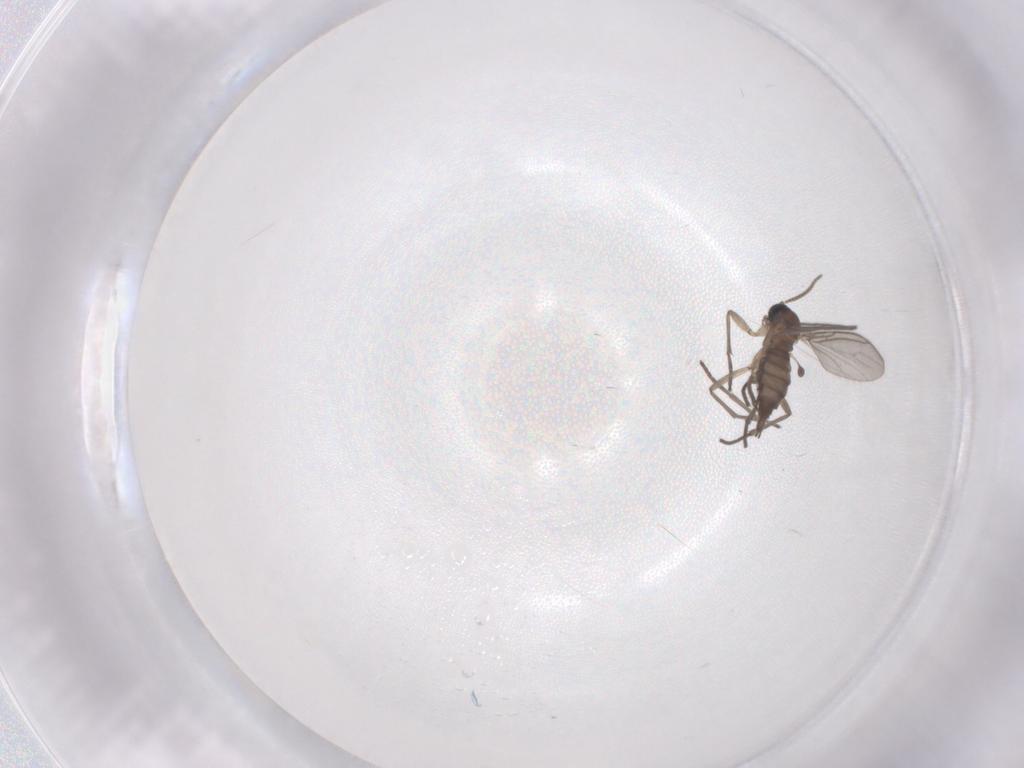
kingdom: Animalia
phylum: Arthropoda
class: Insecta
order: Diptera
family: Sciaridae
